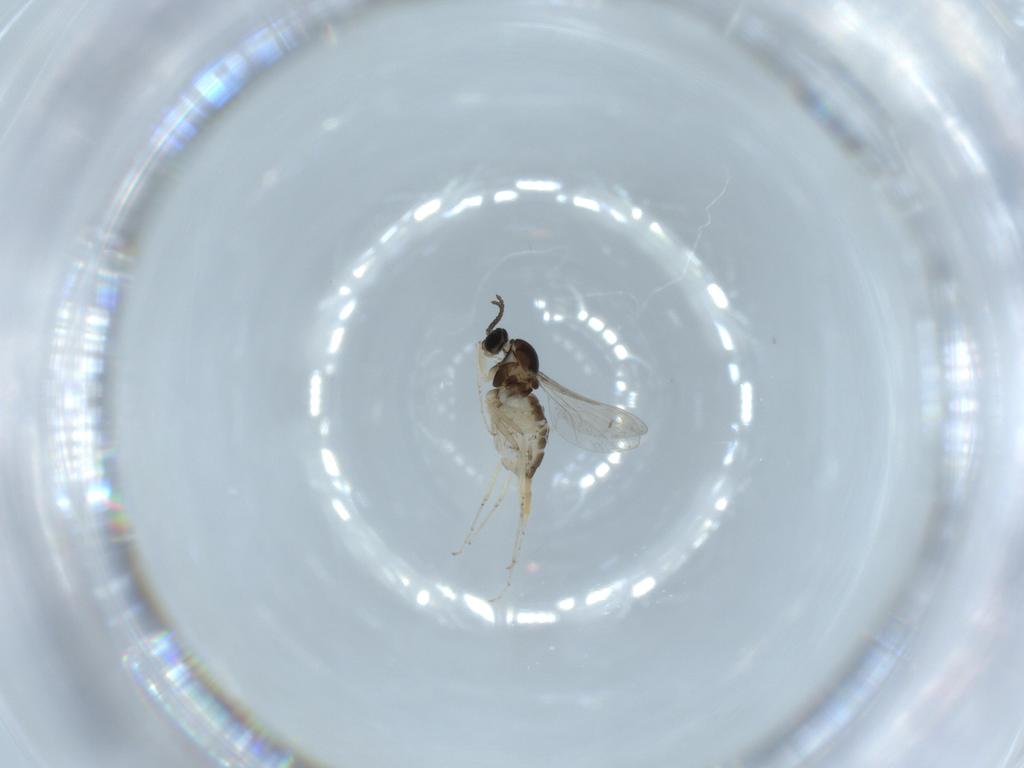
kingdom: Animalia
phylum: Arthropoda
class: Insecta
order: Diptera
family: Cecidomyiidae
